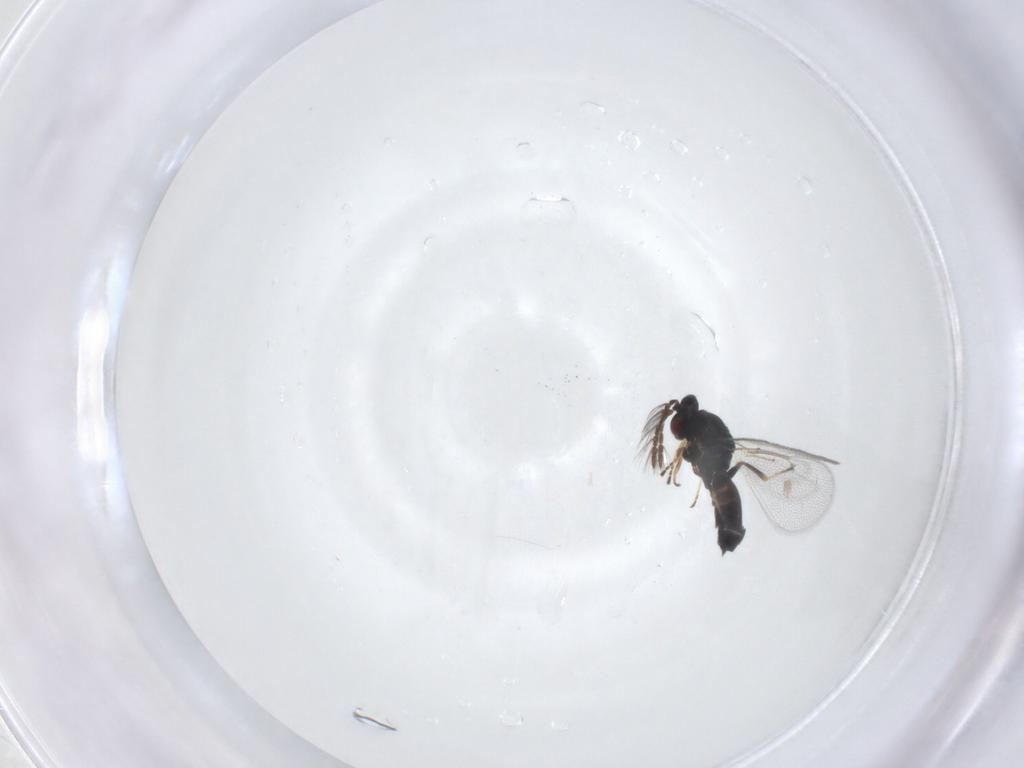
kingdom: Animalia
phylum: Arthropoda
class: Insecta
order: Hymenoptera
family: Eulophidae
